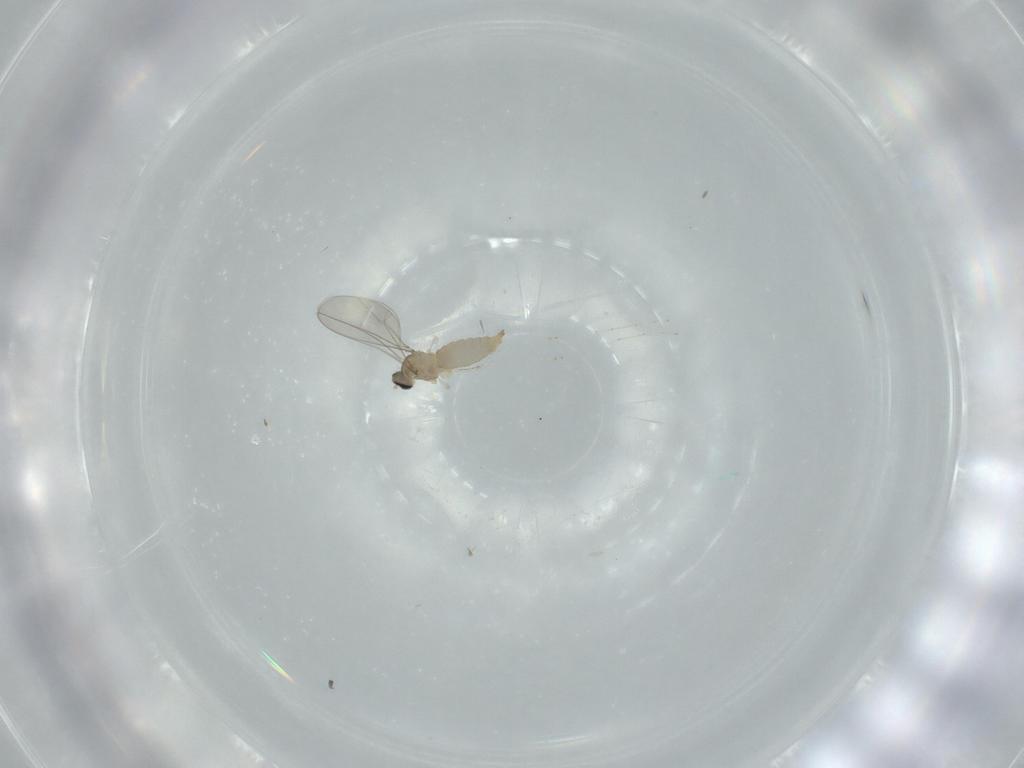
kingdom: Animalia
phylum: Arthropoda
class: Insecta
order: Diptera
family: Cecidomyiidae
